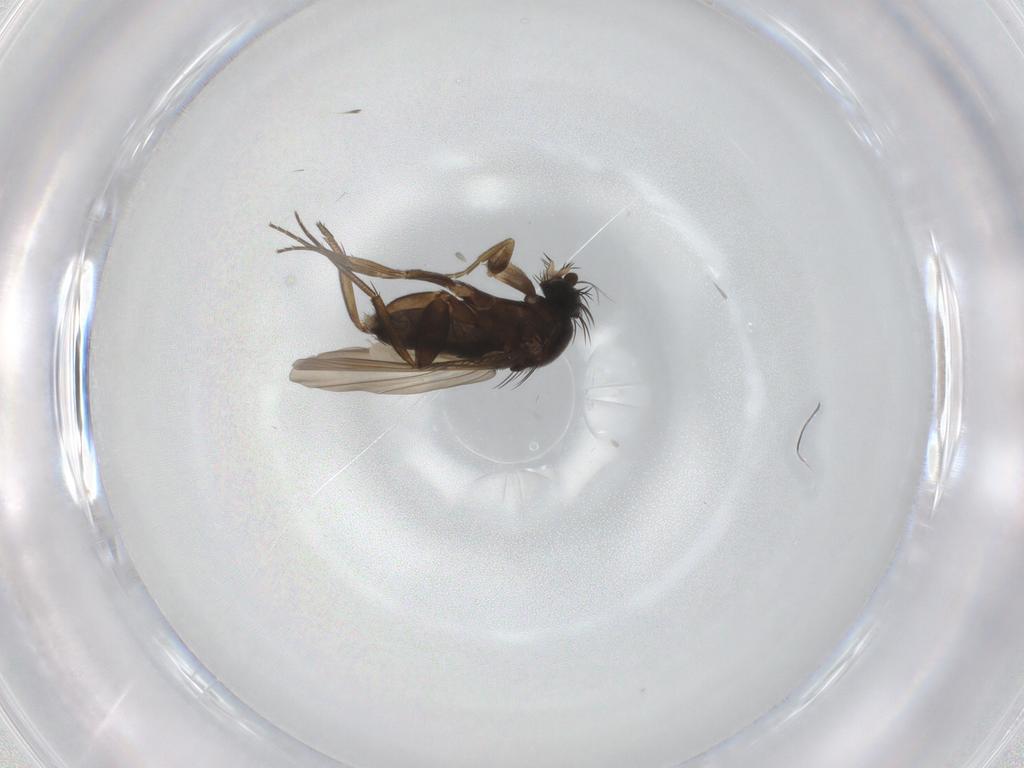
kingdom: Animalia
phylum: Arthropoda
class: Insecta
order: Diptera
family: Phoridae
